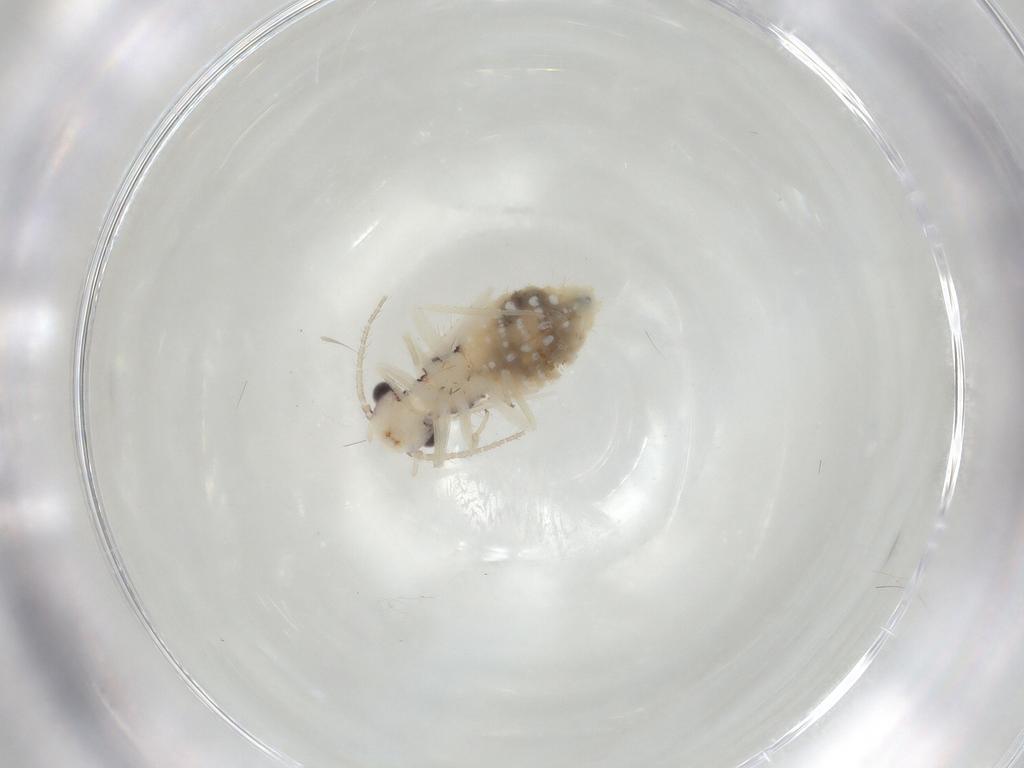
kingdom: Animalia
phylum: Arthropoda
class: Insecta
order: Psocodea
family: Philotarsidae
